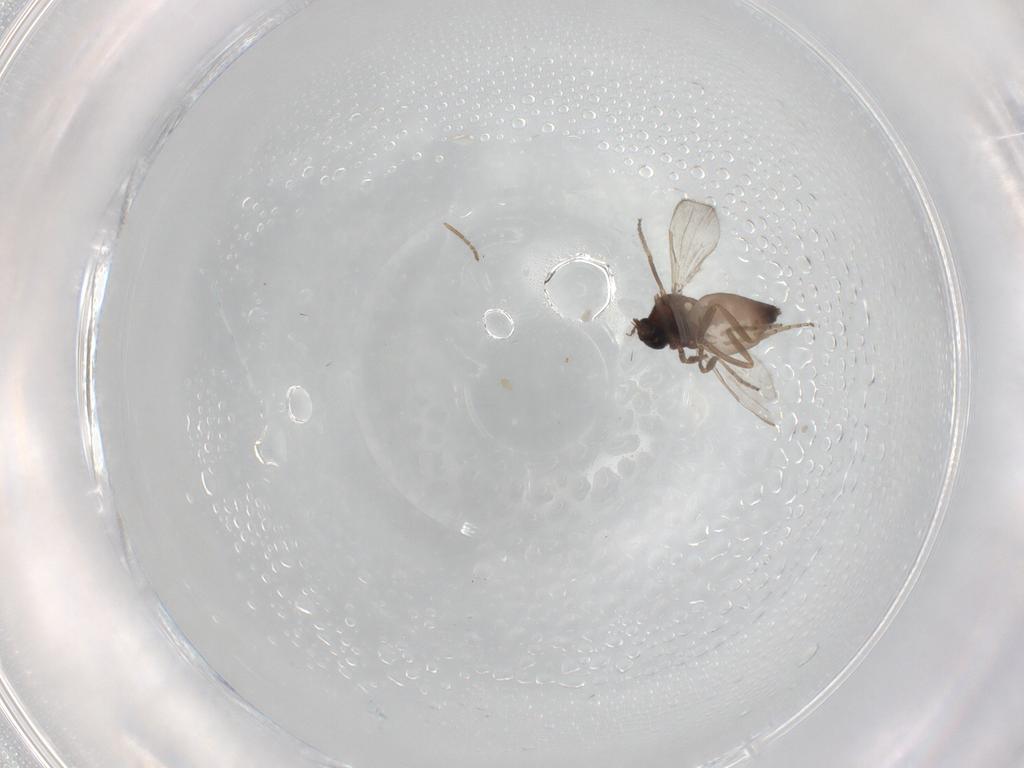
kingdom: Animalia
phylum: Arthropoda
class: Insecta
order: Diptera
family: Ceratopogonidae
